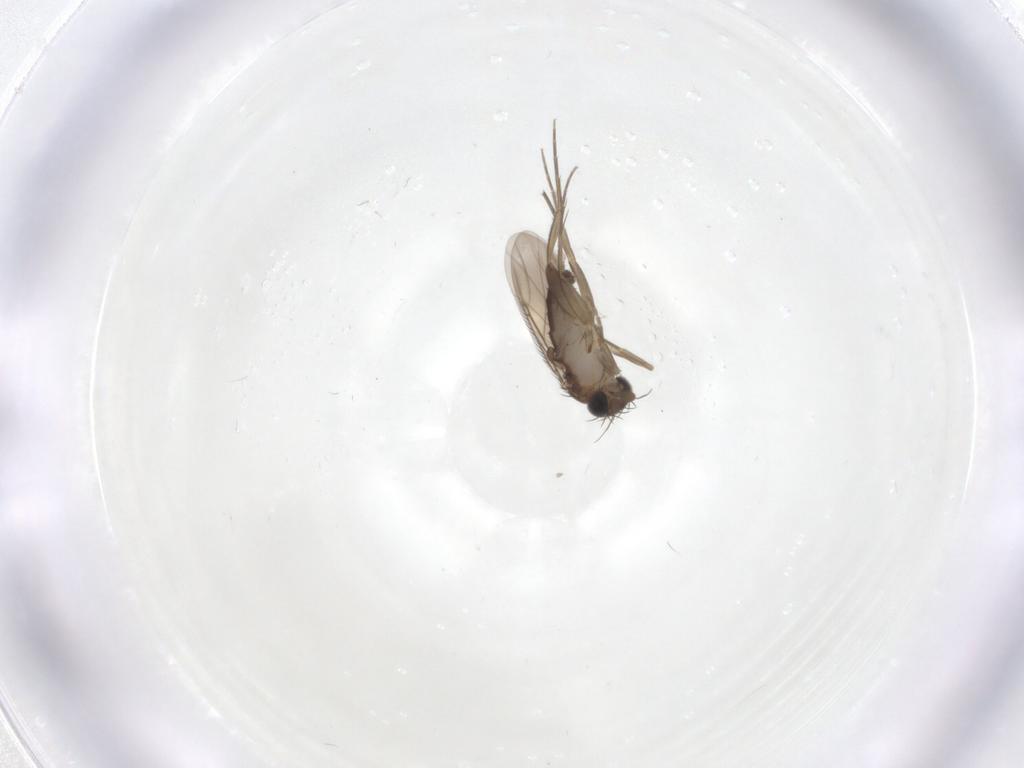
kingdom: Animalia
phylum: Arthropoda
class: Insecta
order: Diptera
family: Phoridae
